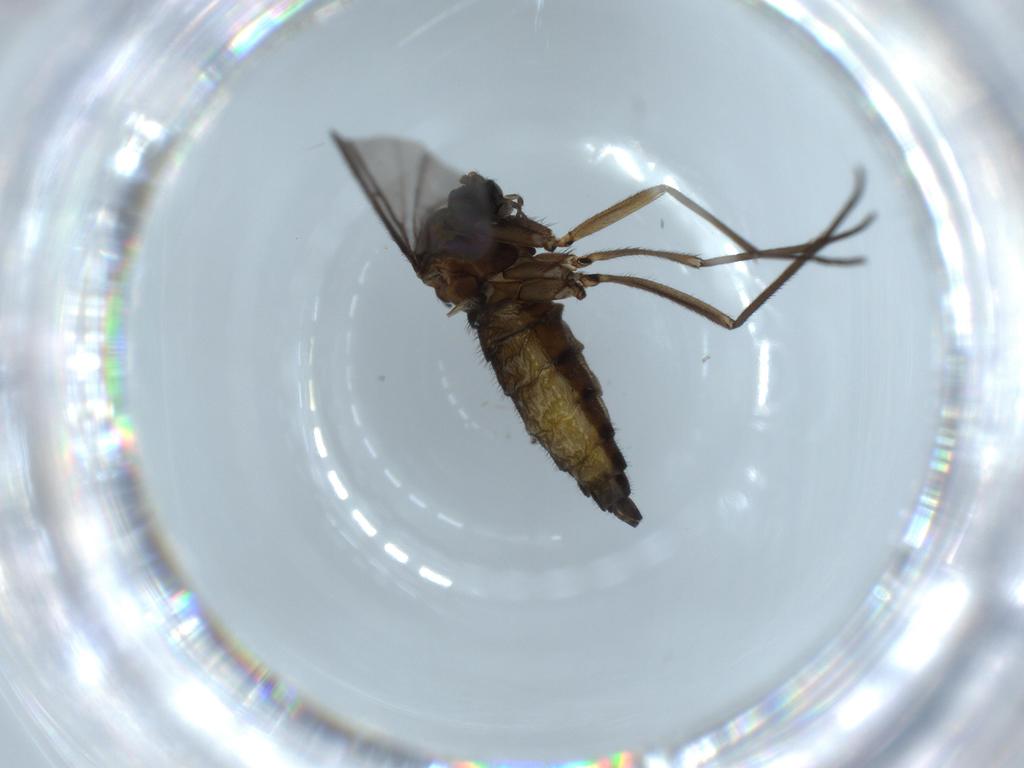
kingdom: Animalia
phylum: Arthropoda
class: Insecta
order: Diptera
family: Sciaridae
